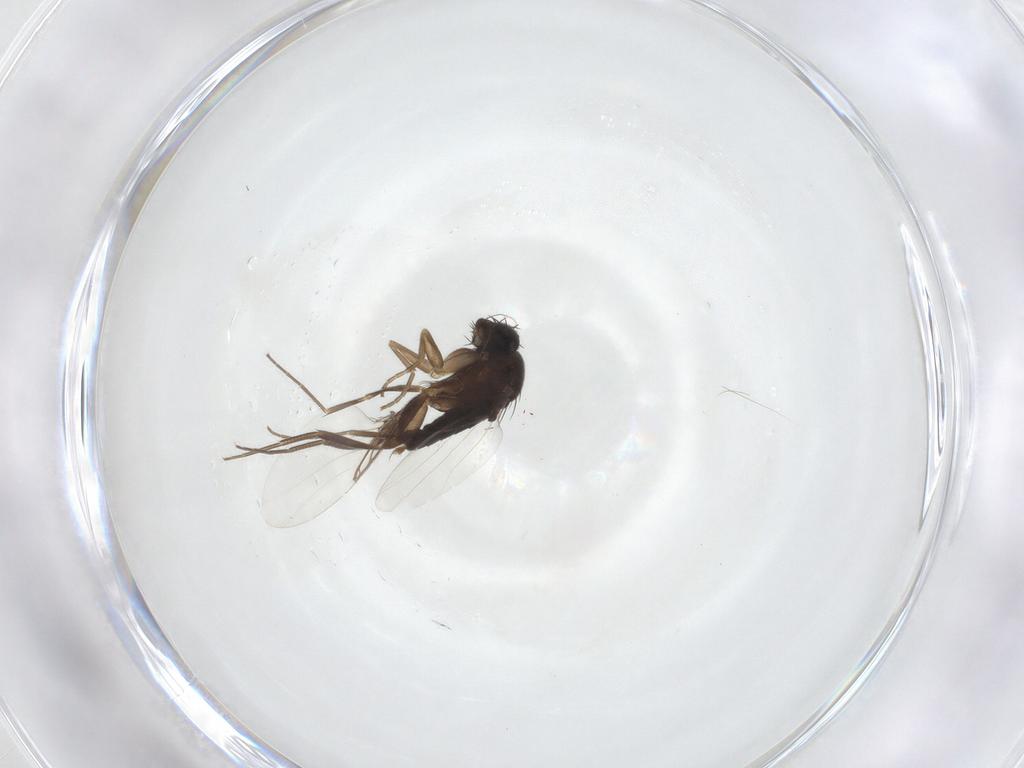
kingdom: Animalia
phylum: Arthropoda
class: Insecta
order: Diptera
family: Phoridae
